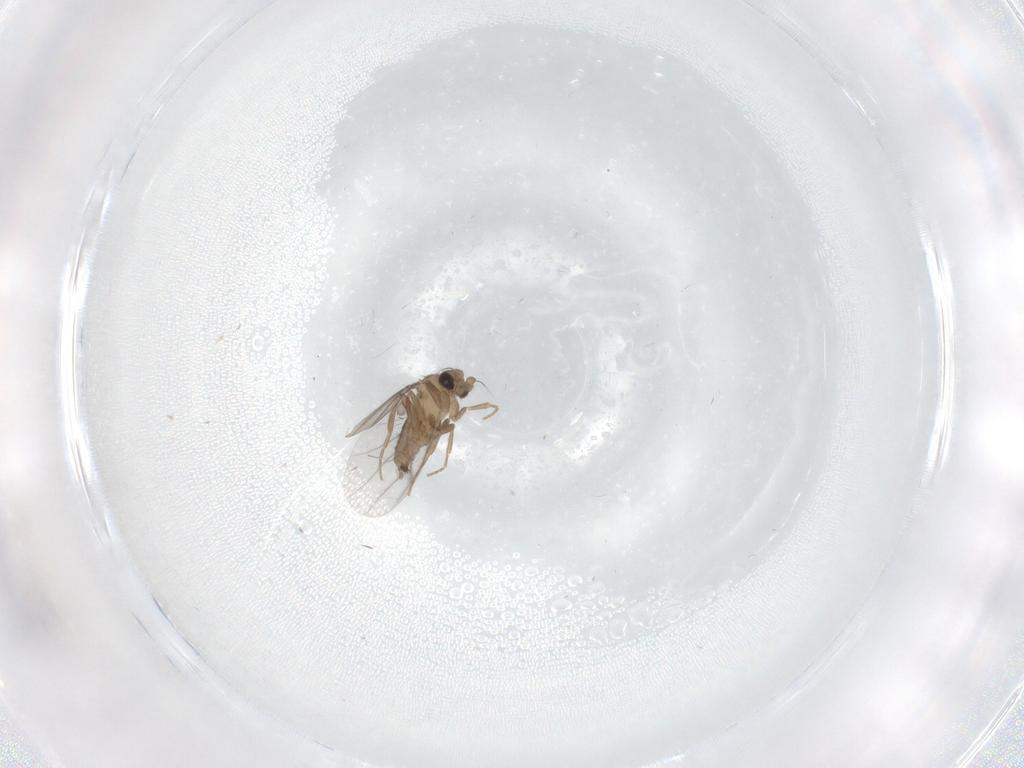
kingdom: Animalia
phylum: Arthropoda
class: Insecta
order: Diptera
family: Cecidomyiidae
